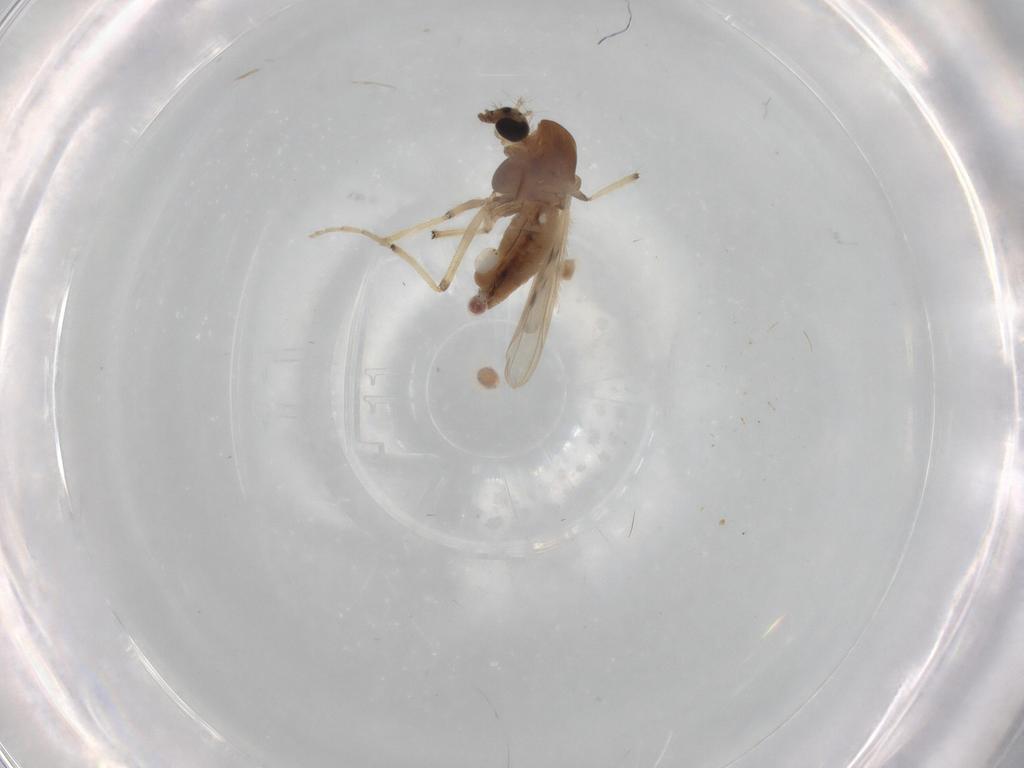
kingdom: Animalia
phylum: Arthropoda
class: Insecta
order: Diptera
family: Chironomidae
